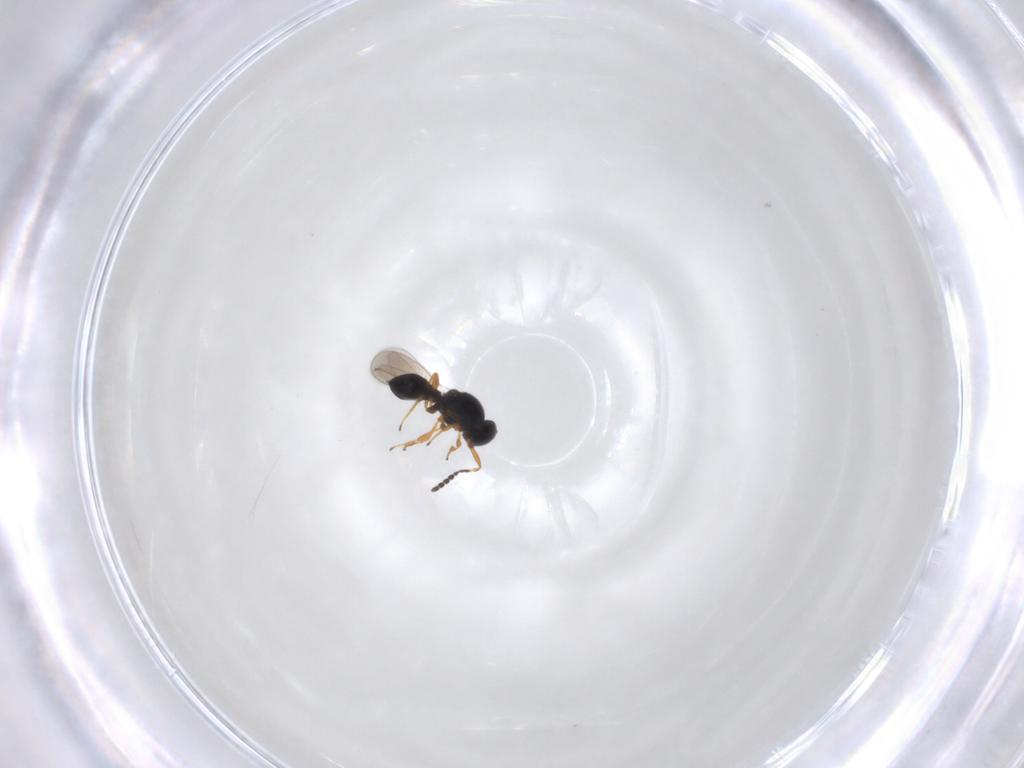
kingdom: Animalia
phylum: Arthropoda
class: Insecta
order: Hymenoptera
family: Platygastridae
